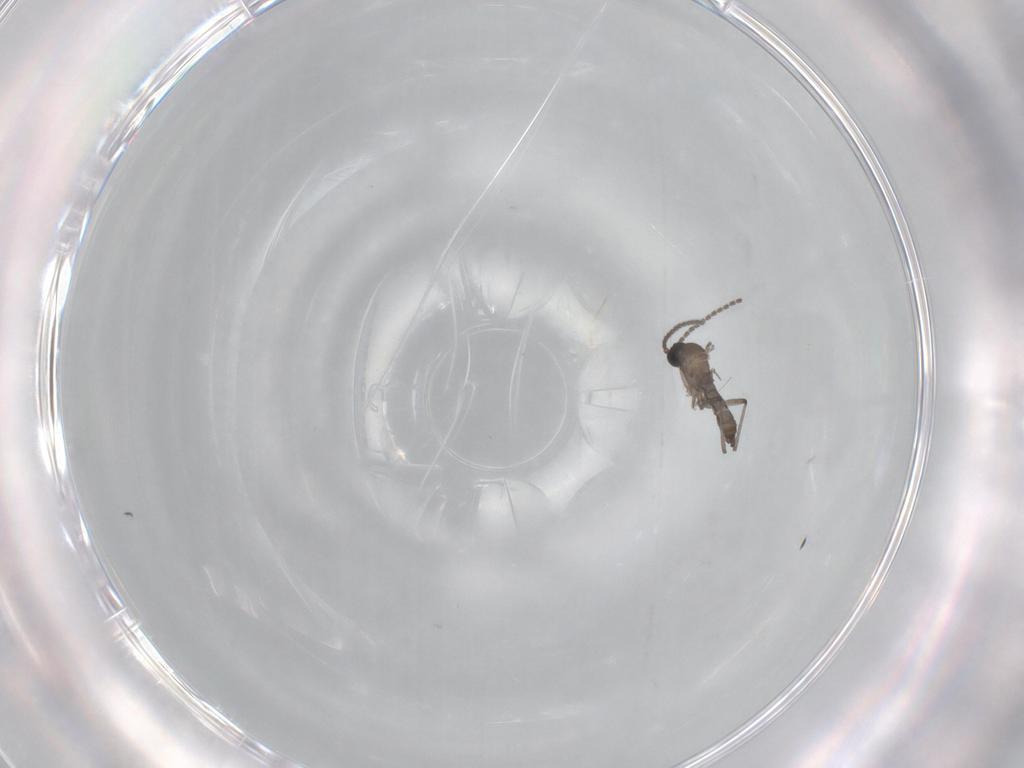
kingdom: Animalia
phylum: Arthropoda
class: Insecta
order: Diptera
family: Sciaridae
